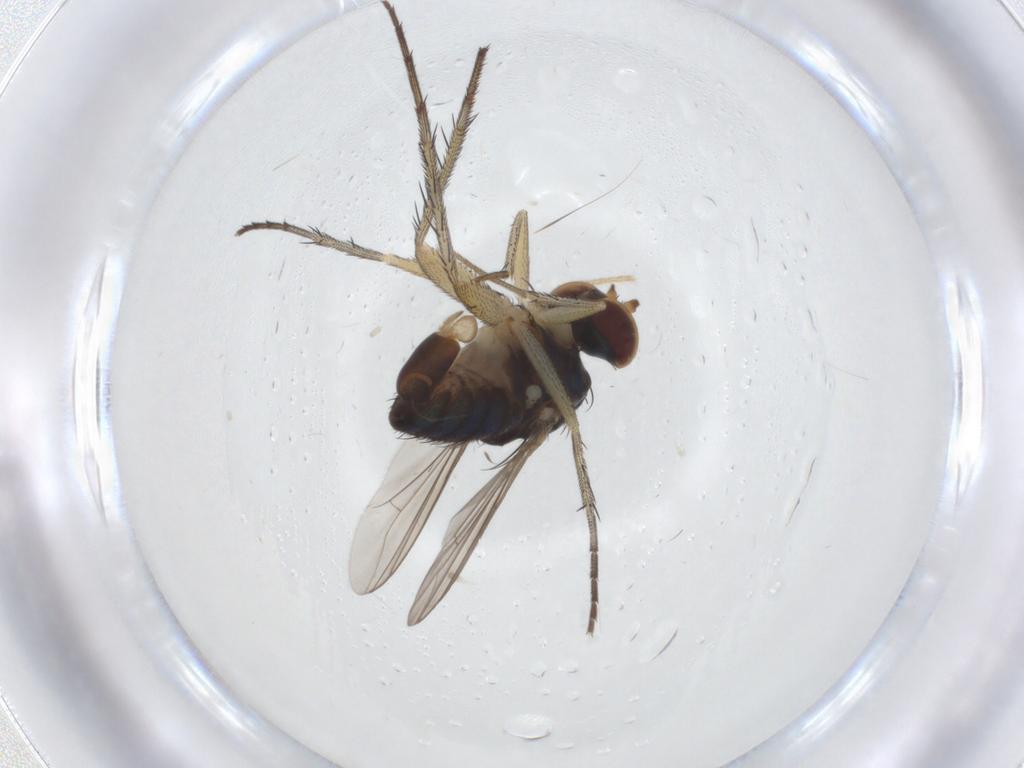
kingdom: Animalia
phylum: Arthropoda
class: Insecta
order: Diptera
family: Dolichopodidae
